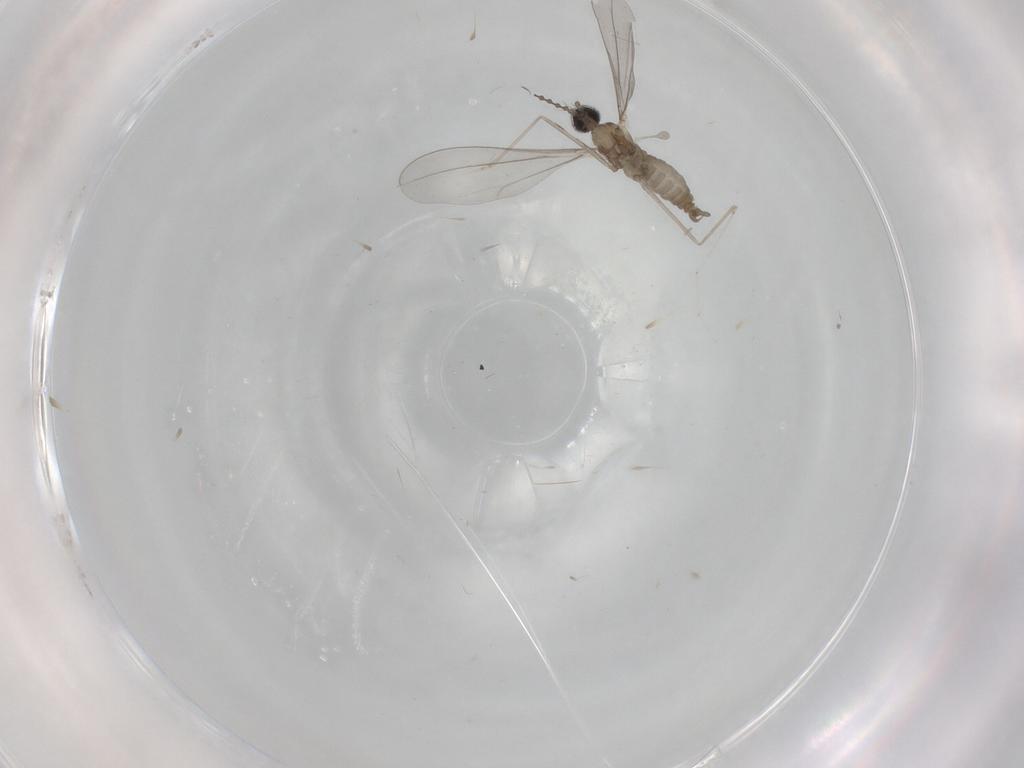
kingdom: Animalia
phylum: Arthropoda
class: Insecta
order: Diptera
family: Cecidomyiidae
